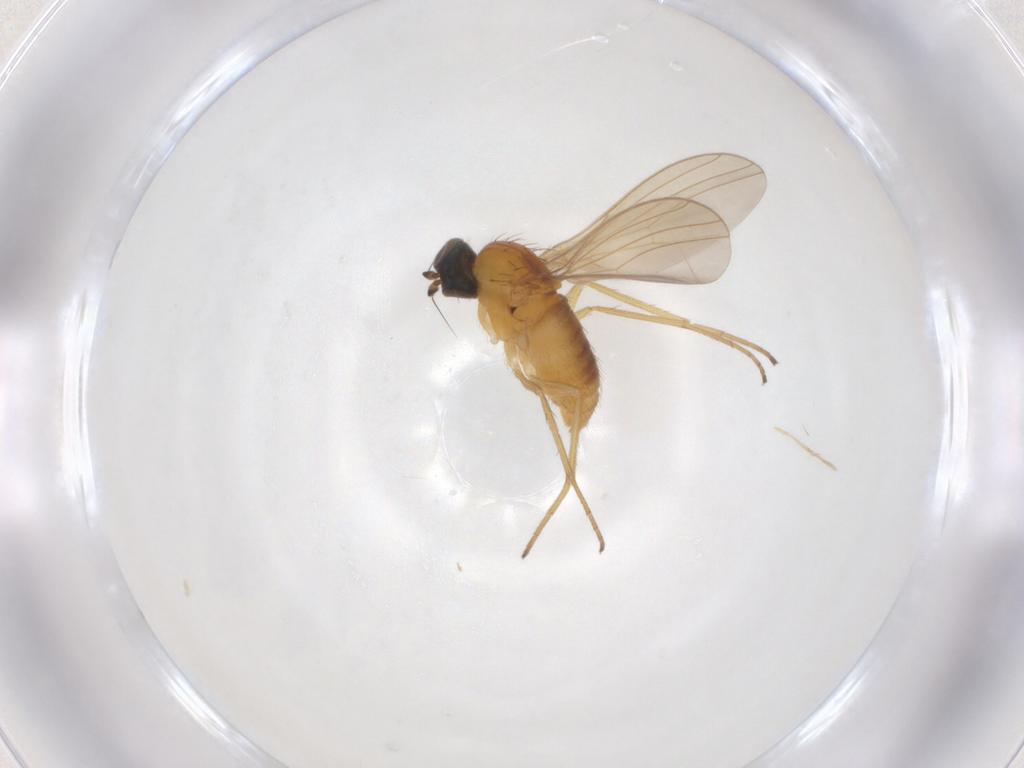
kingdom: Animalia
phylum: Arthropoda
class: Insecta
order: Diptera
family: Dolichopodidae
